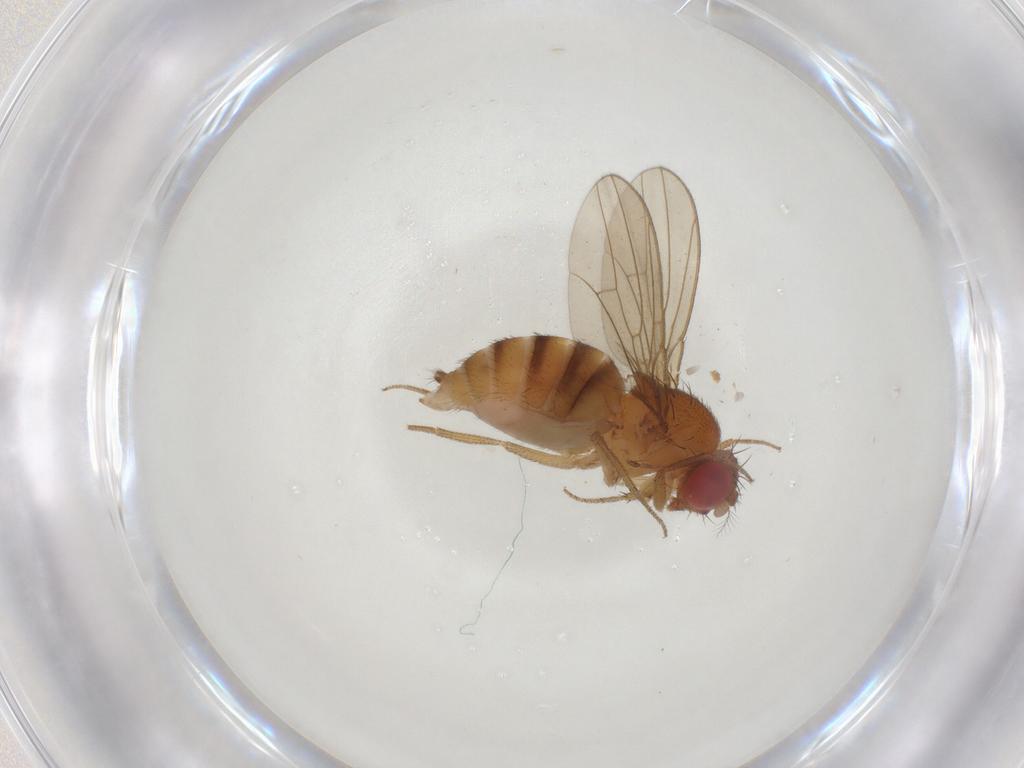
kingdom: Animalia
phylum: Arthropoda
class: Insecta
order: Diptera
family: Drosophilidae
